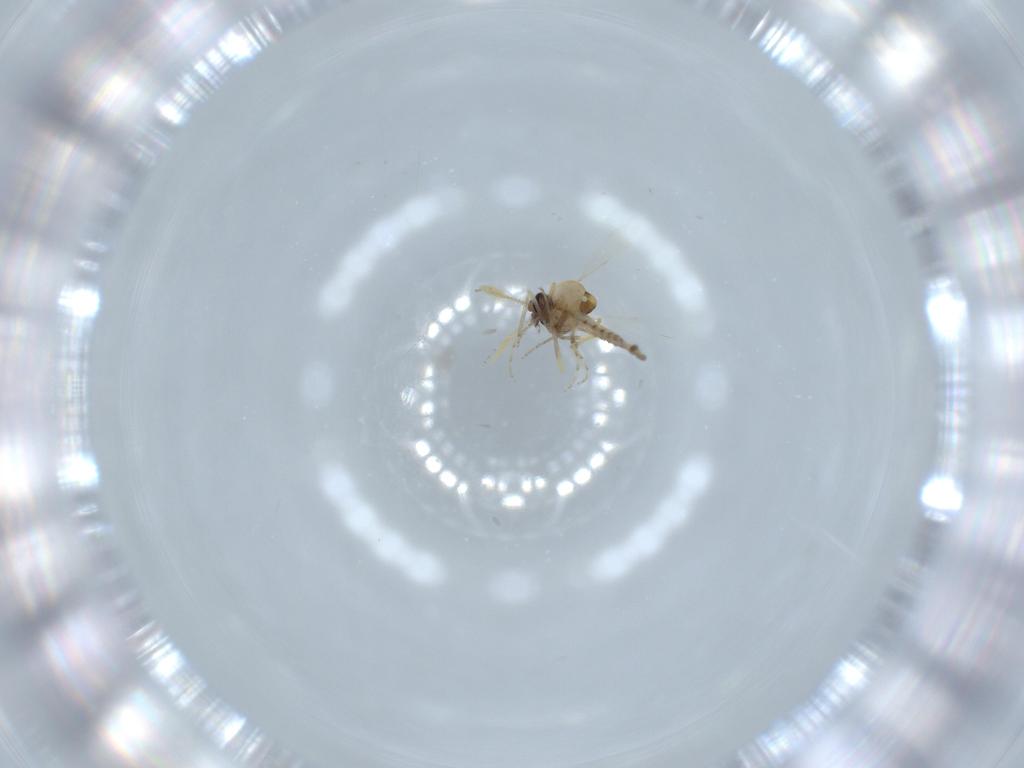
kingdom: Animalia
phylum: Arthropoda
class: Insecta
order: Diptera
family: Ceratopogonidae
